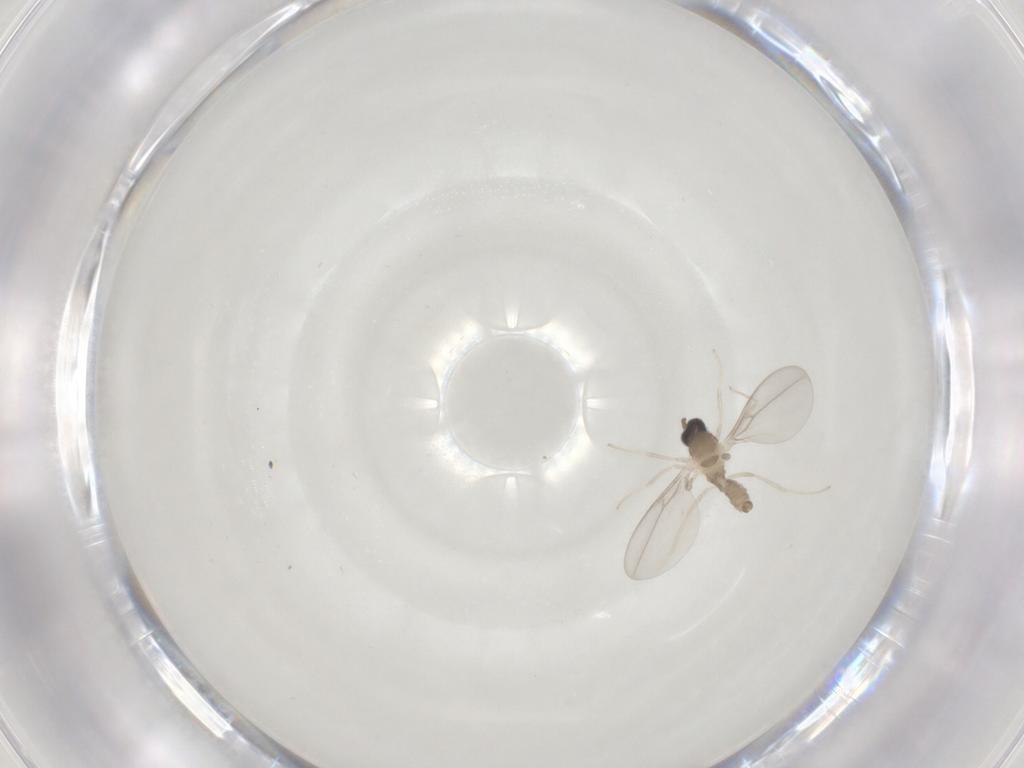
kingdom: Animalia
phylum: Arthropoda
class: Insecta
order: Diptera
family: Cecidomyiidae
